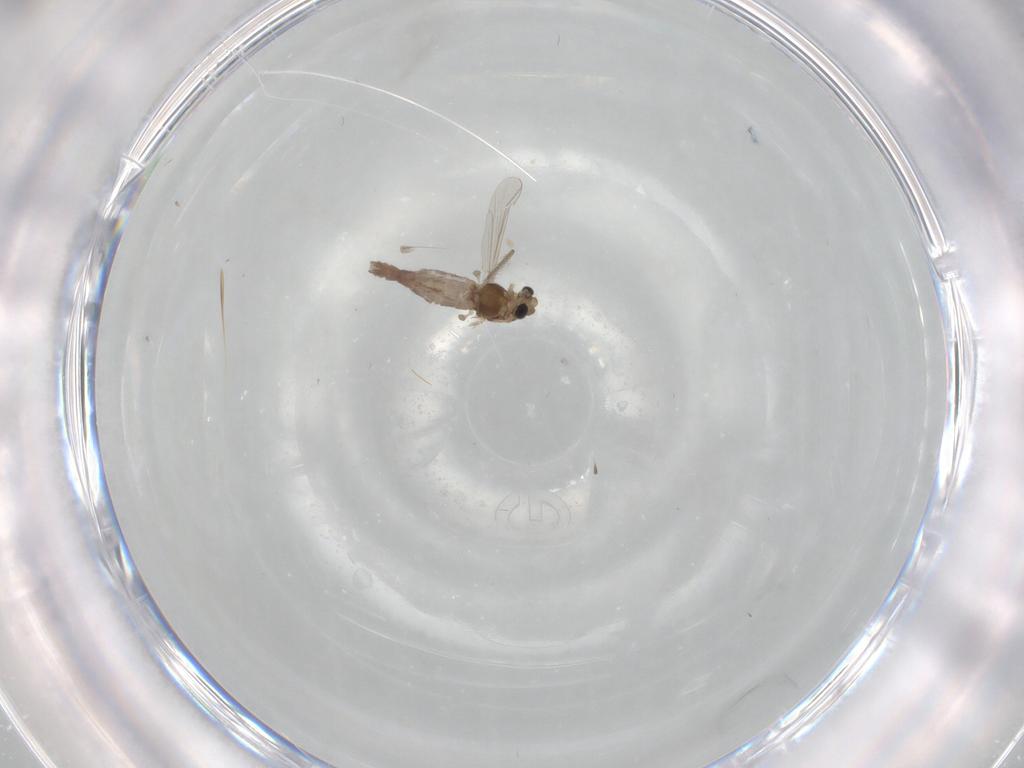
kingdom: Animalia
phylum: Arthropoda
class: Insecta
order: Diptera
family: Chironomidae
